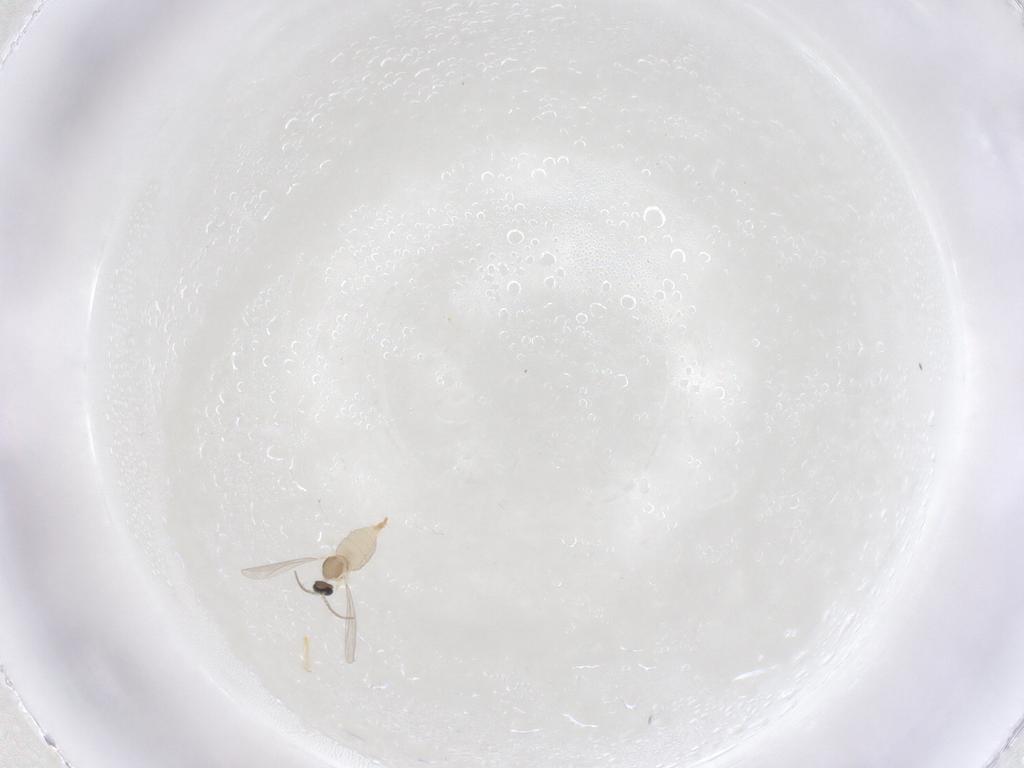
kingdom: Animalia
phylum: Arthropoda
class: Insecta
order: Diptera
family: Cecidomyiidae
